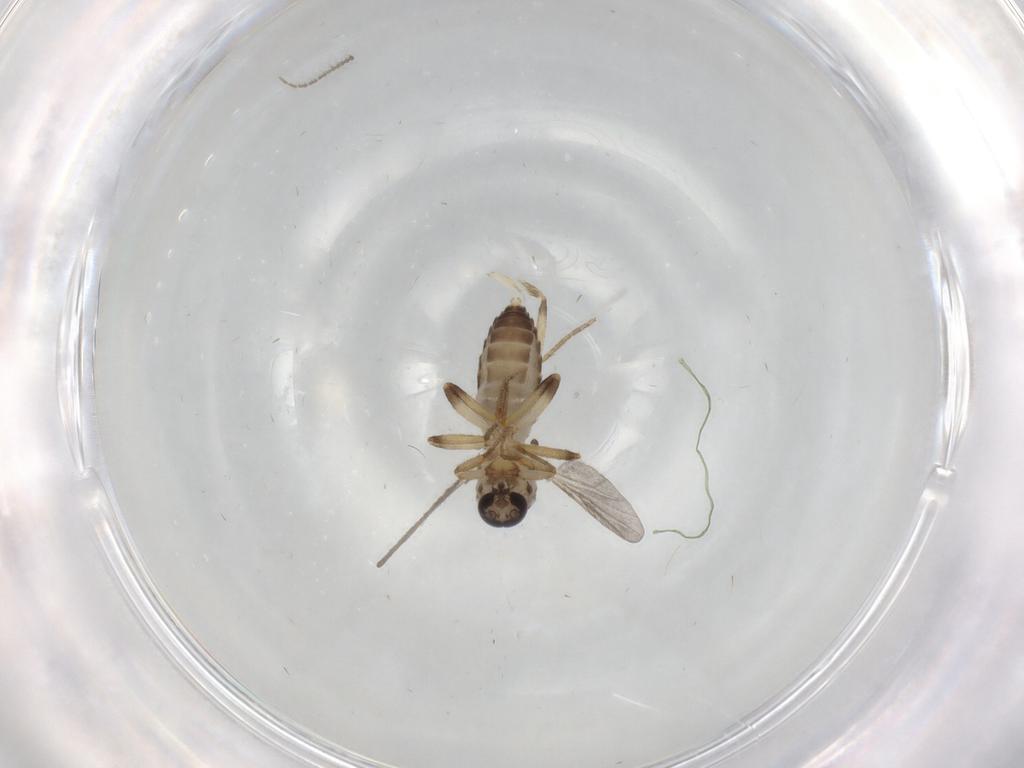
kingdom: Animalia
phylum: Arthropoda
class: Insecta
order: Diptera
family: Ceratopogonidae
